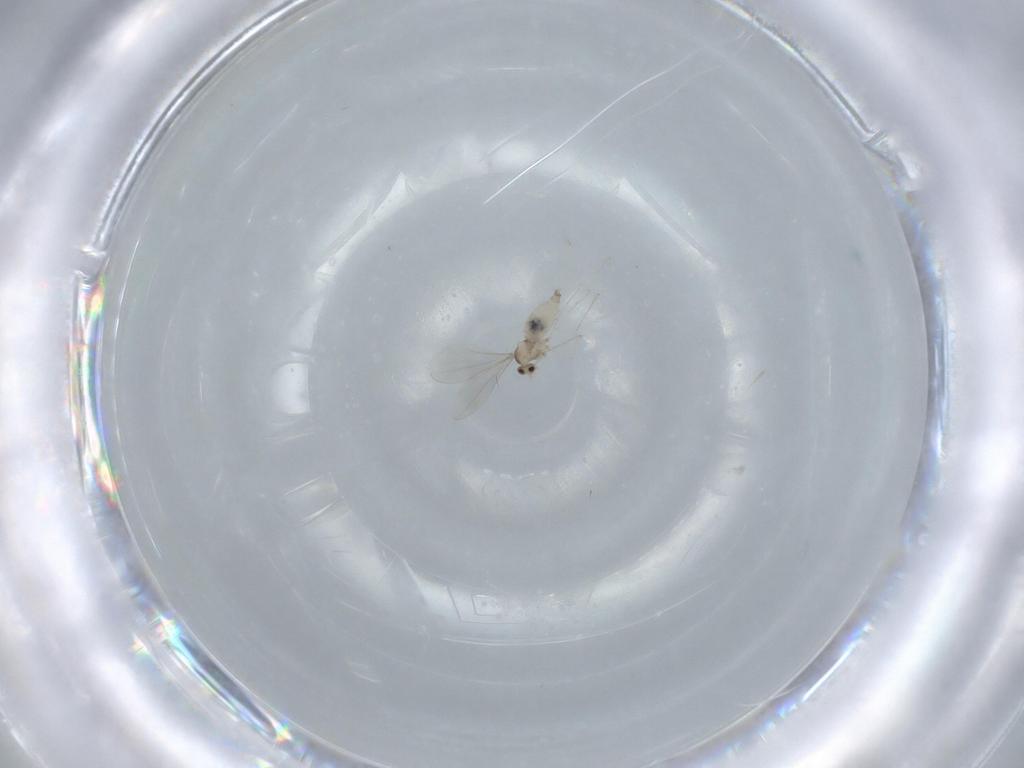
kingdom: Animalia
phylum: Arthropoda
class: Insecta
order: Diptera
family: Cecidomyiidae
